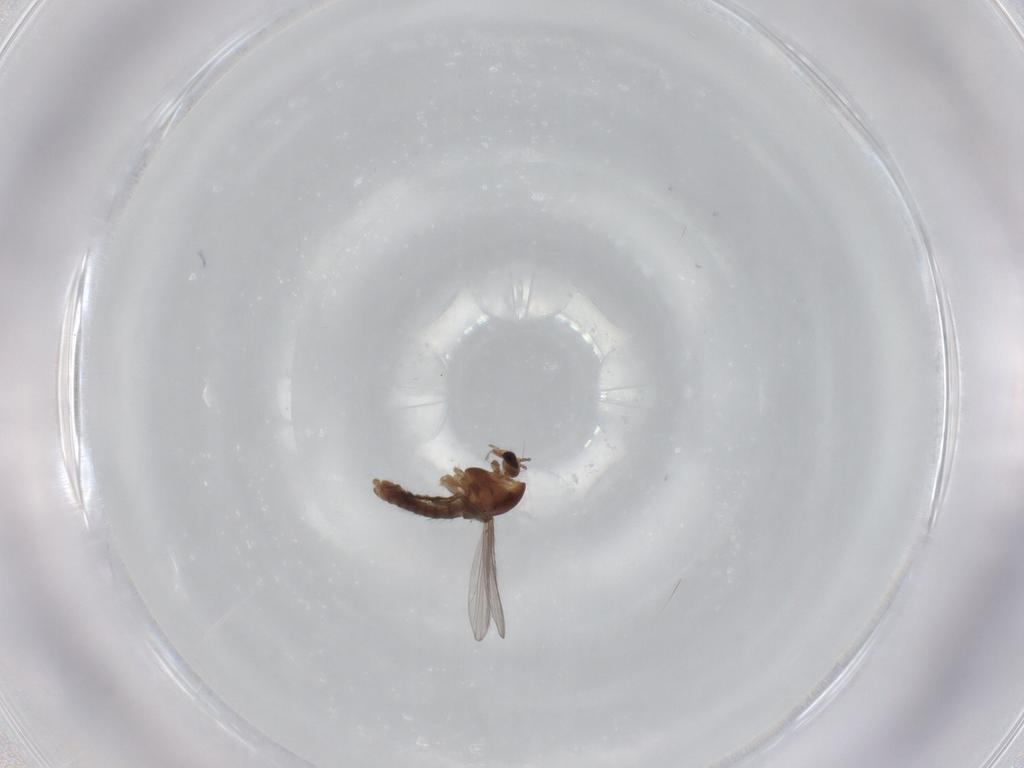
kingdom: Animalia
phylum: Arthropoda
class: Insecta
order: Diptera
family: Chironomidae
